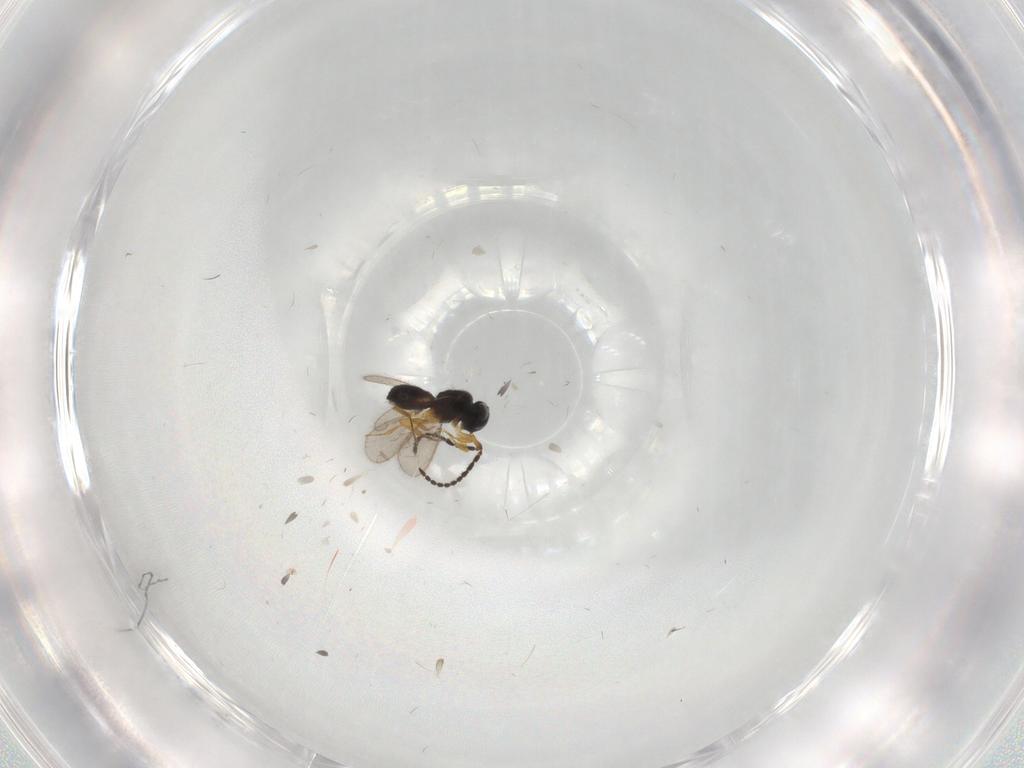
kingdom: Animalia
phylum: Arthropoda
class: Insecta
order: Hymenoptera
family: Scelionidae
